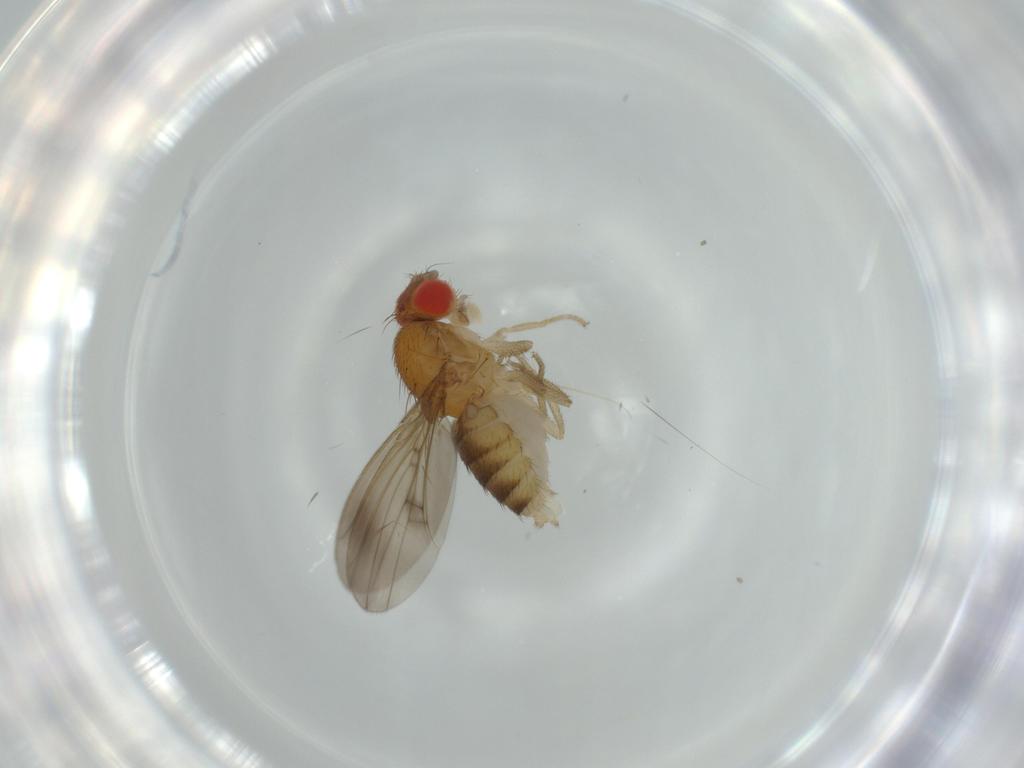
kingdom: Animalia
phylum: Arthropoda
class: Insecta
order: Diptera
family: Drosophilidae
